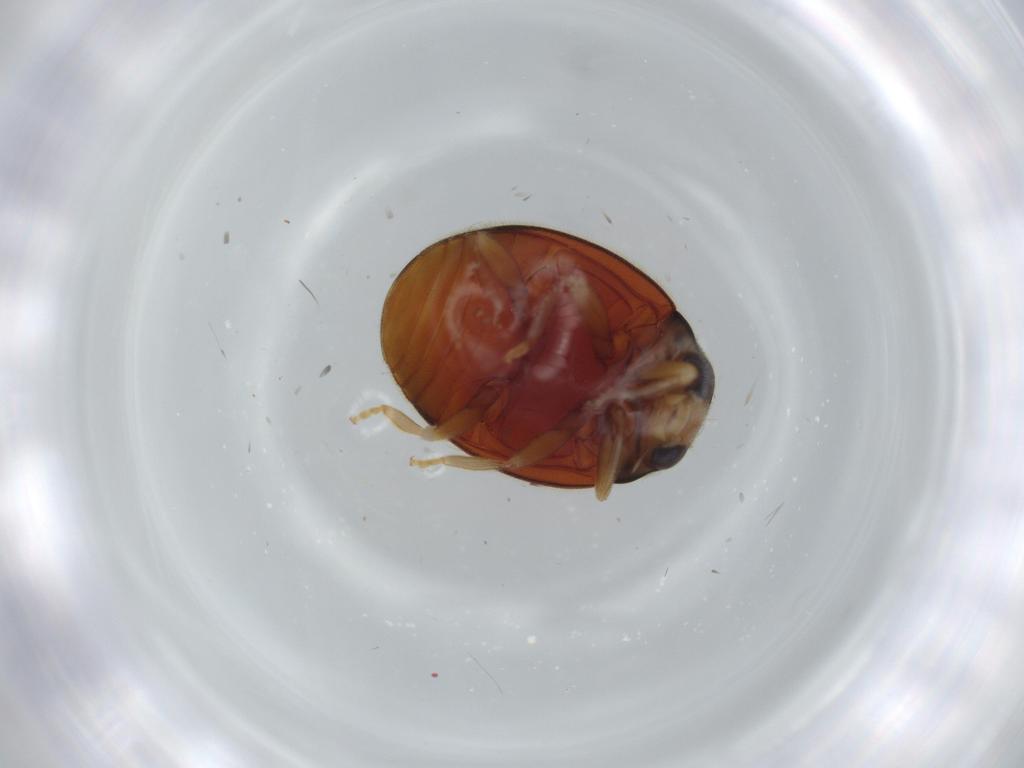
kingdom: Animalia
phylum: Arthropoda
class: Insecta
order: Coleoptera
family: Coccinellidae
